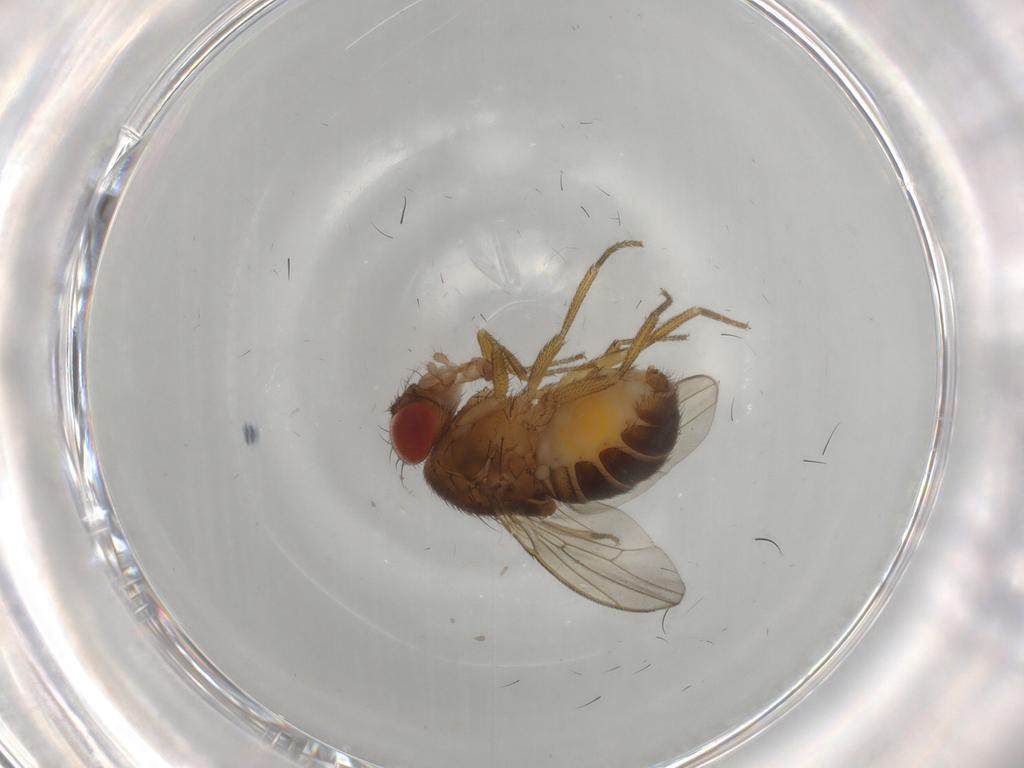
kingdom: Animalia
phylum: Arthropoda
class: Insecta
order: Diptera
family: Drosophilidae
